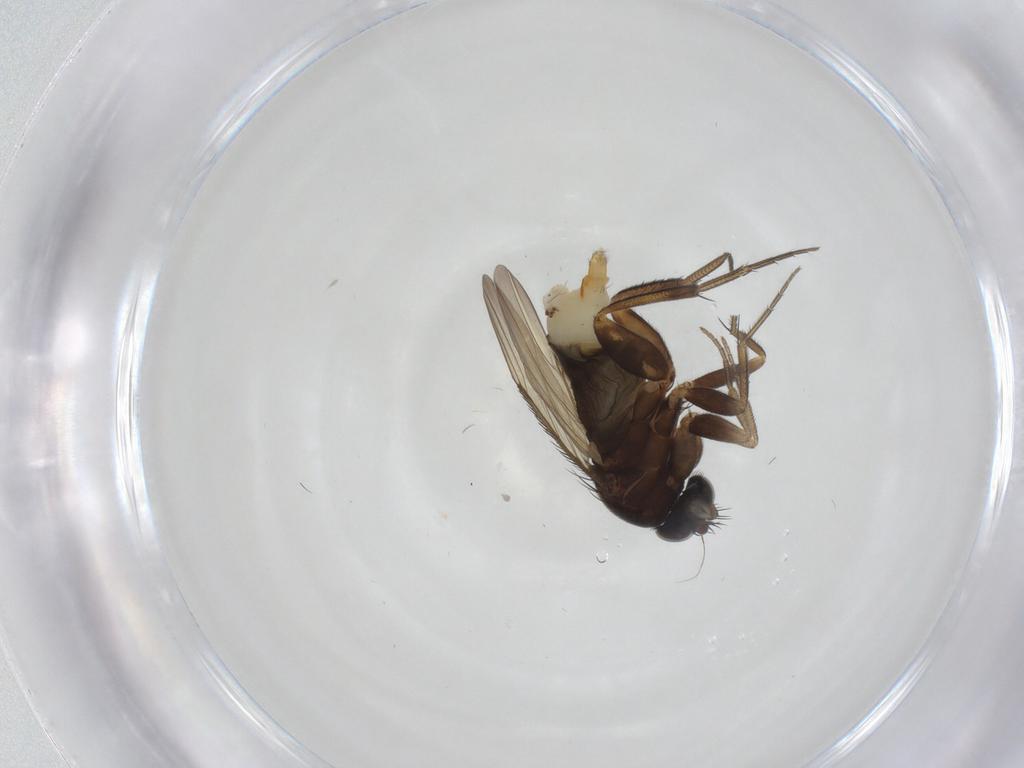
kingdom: Animalia
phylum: Arthropoda
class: Insecta
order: Diptera
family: Phoridae
